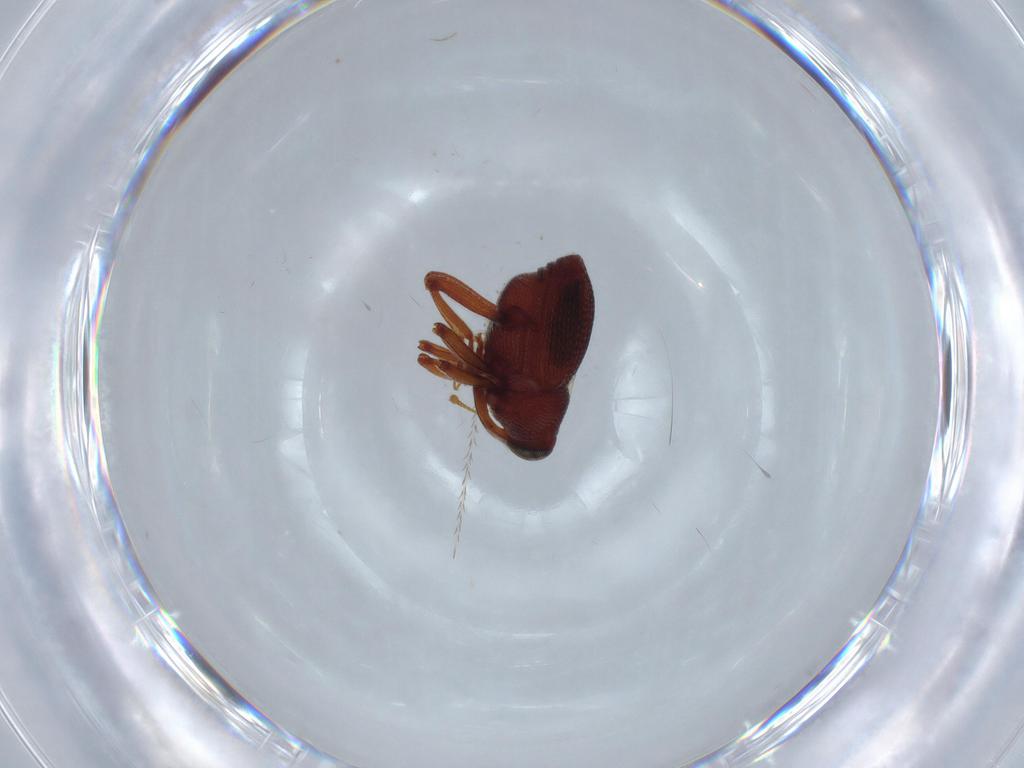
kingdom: Animalia
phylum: Arthropoda
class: Insecta
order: Coleoptera
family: Curculionidae
